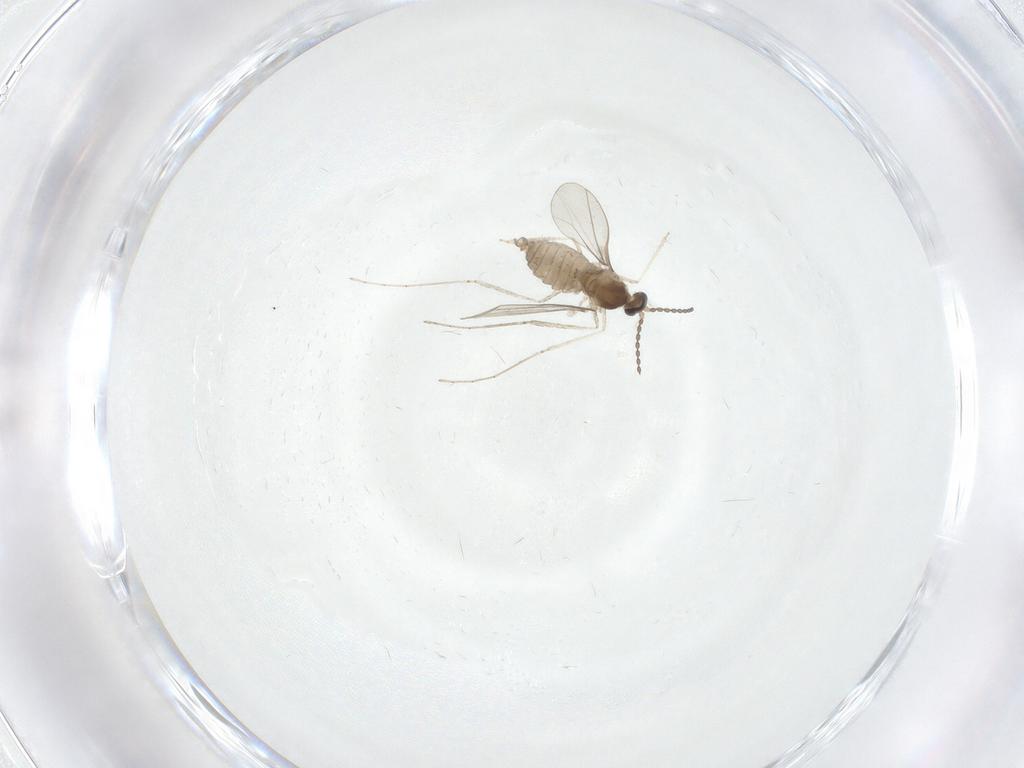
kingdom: Animalia
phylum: Arthropoda
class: Insecta
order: Diptera
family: Cecidomyiidae
